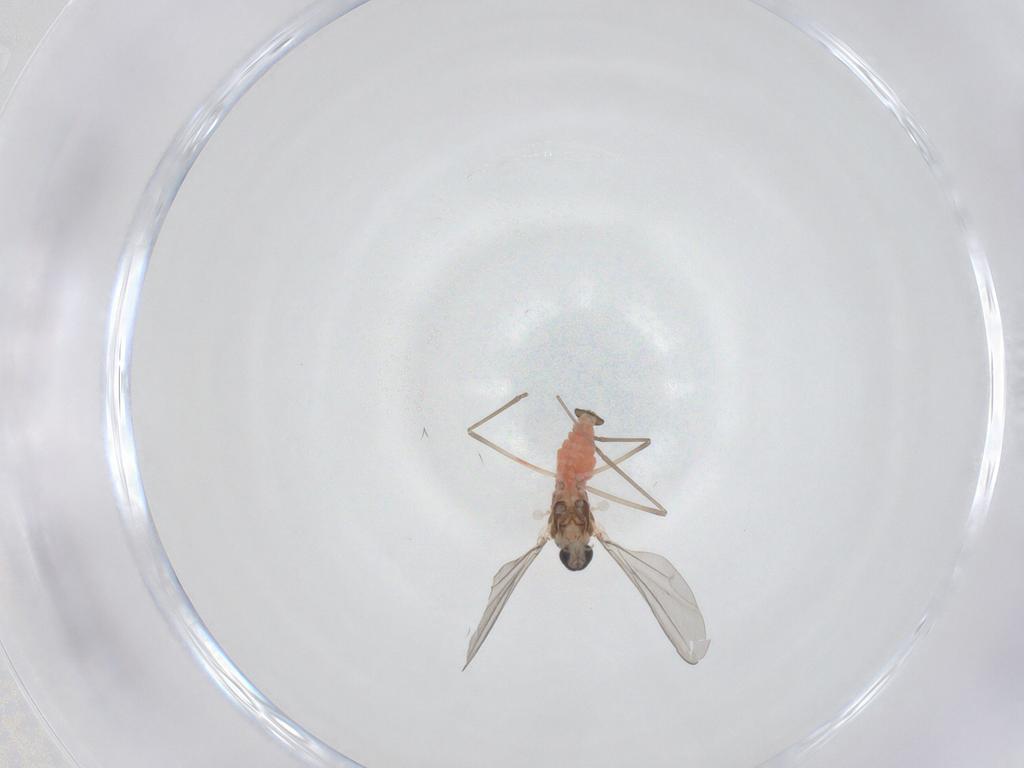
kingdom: Animalia
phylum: Arthropoda
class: Insecta
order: Diptera
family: Cecidomyiidae
